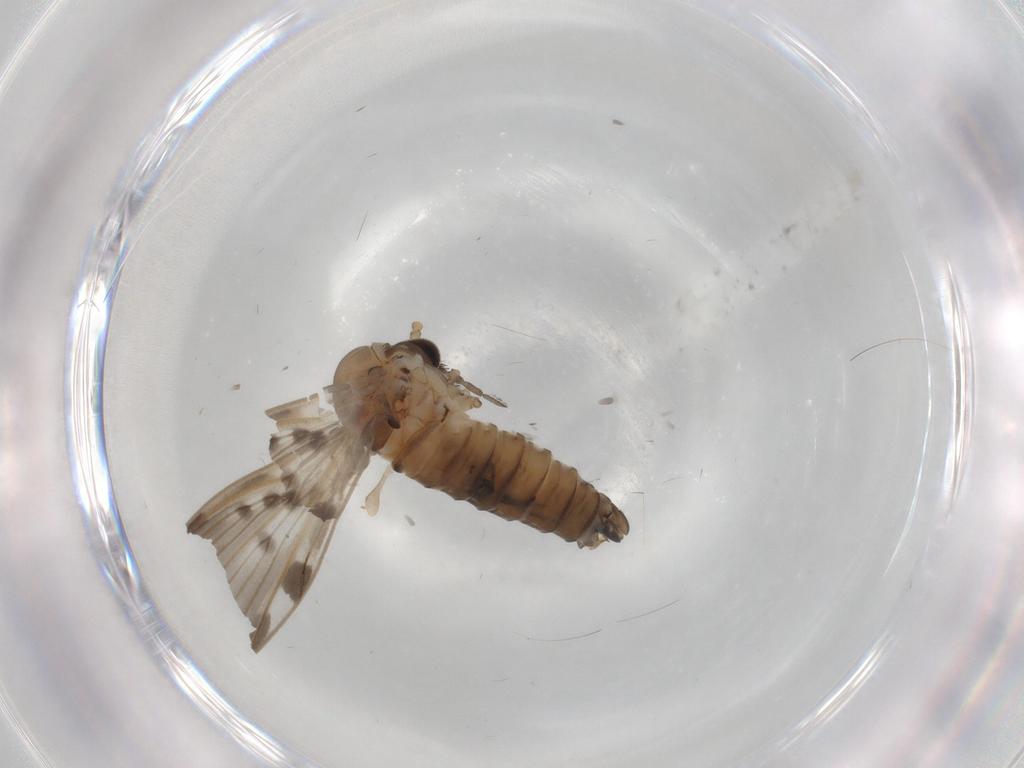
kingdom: Animalia
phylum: Arthropoda
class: Insecta
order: Diptera
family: Psychodidae
